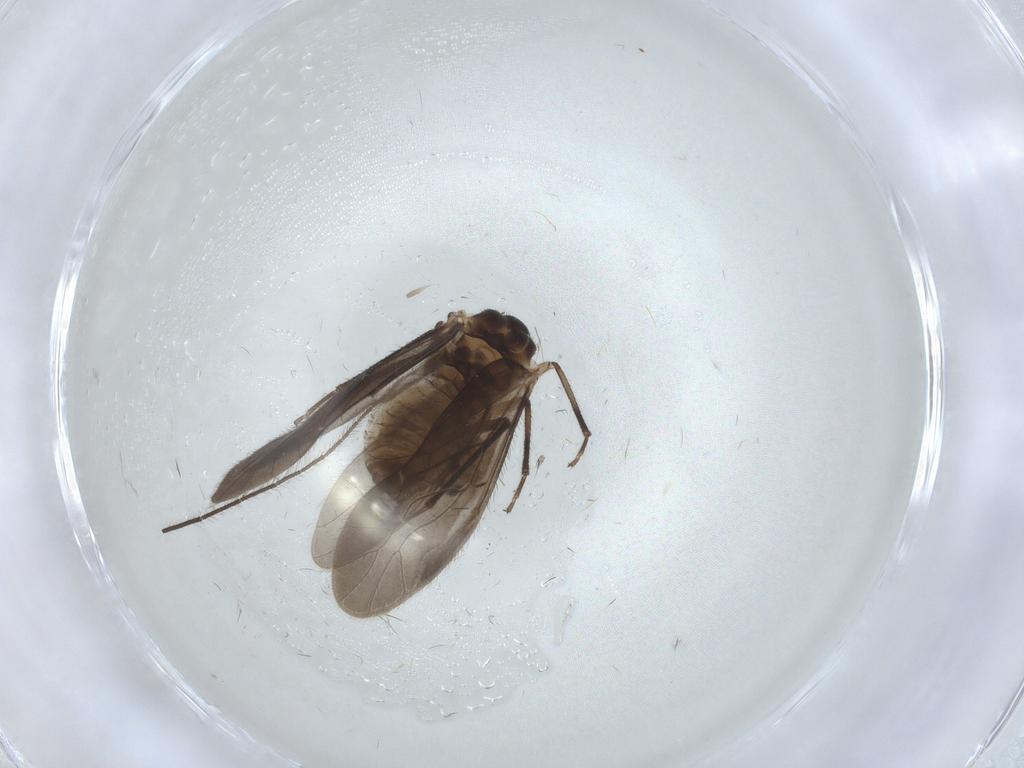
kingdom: Animalia
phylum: Arthropoda
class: Insecta
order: Psocodea
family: Caeciliusidae
